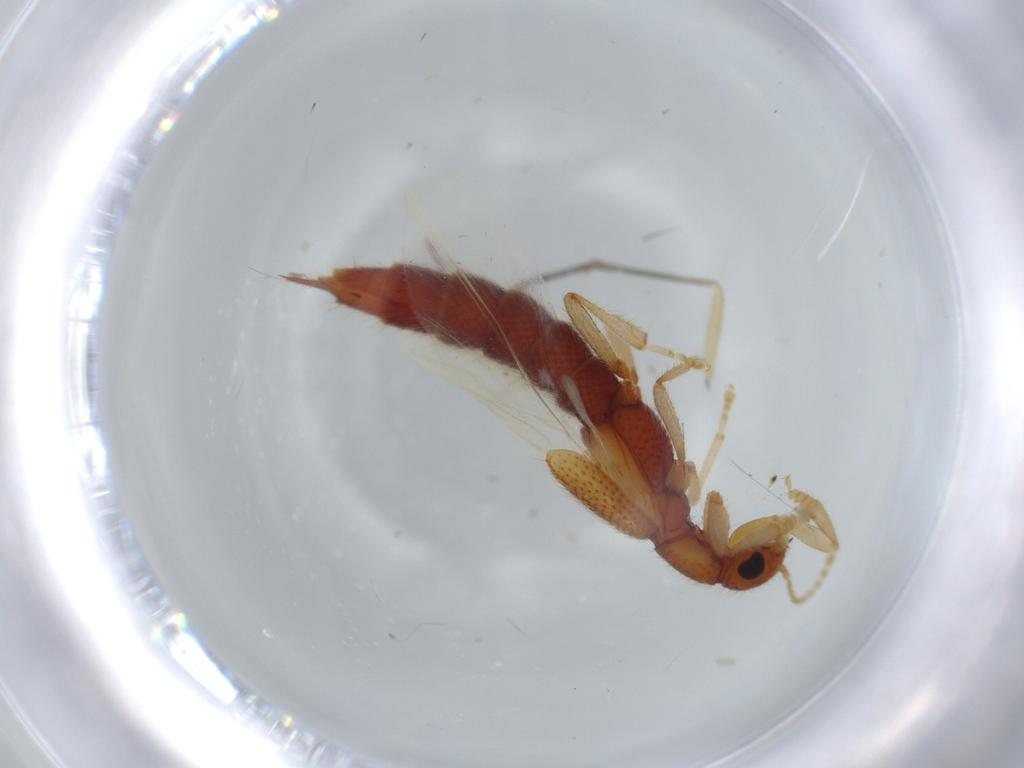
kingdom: Animalia
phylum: Arthropoda
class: Insecta
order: Coleoptera
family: Staphylinidae
